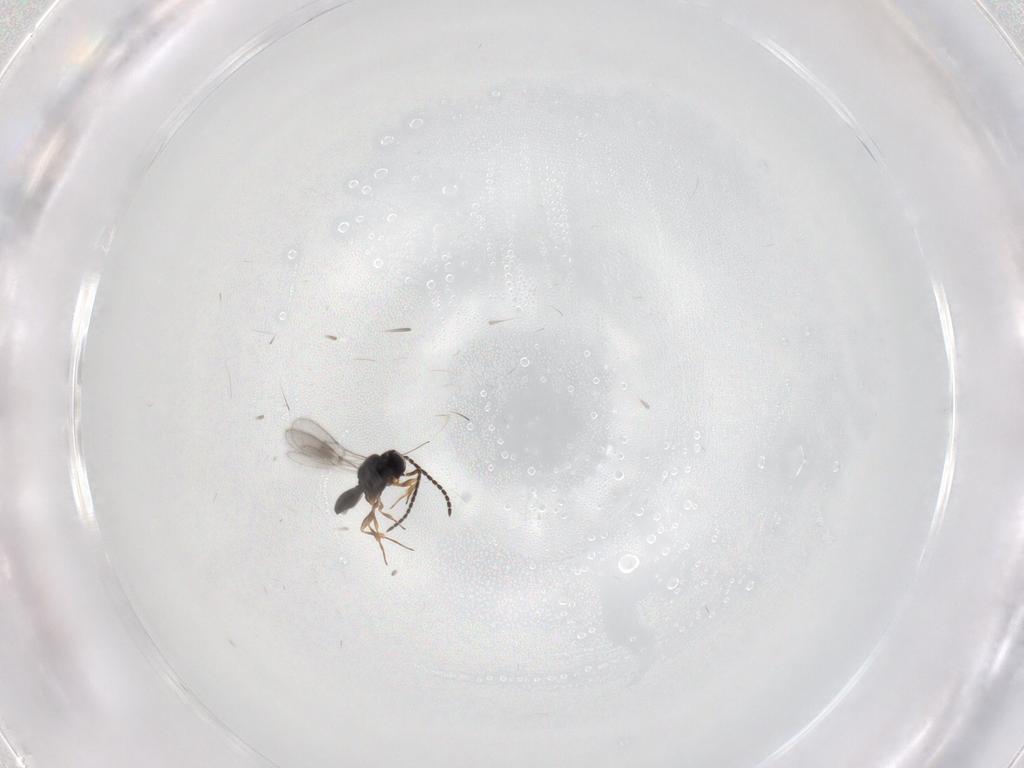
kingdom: Animalia
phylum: Arthropoda
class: Insecta
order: Hymenoptera
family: Scelionidae
